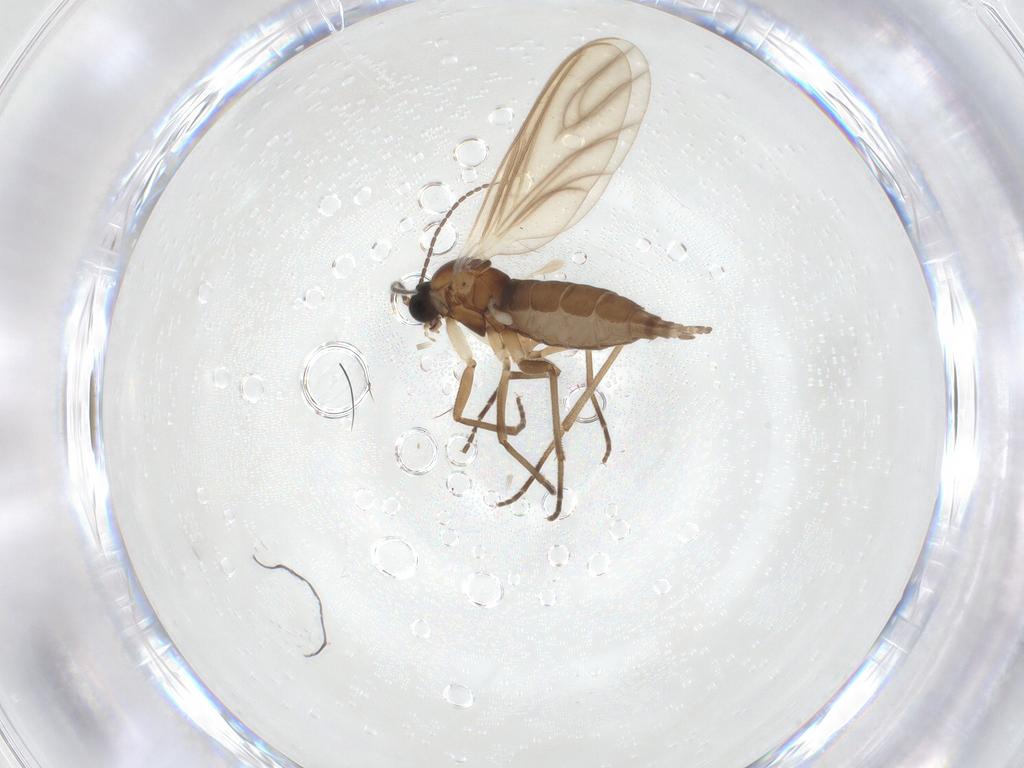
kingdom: Animalia
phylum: Arthropoda
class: Insecta
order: Diptera
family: Sciaridae
